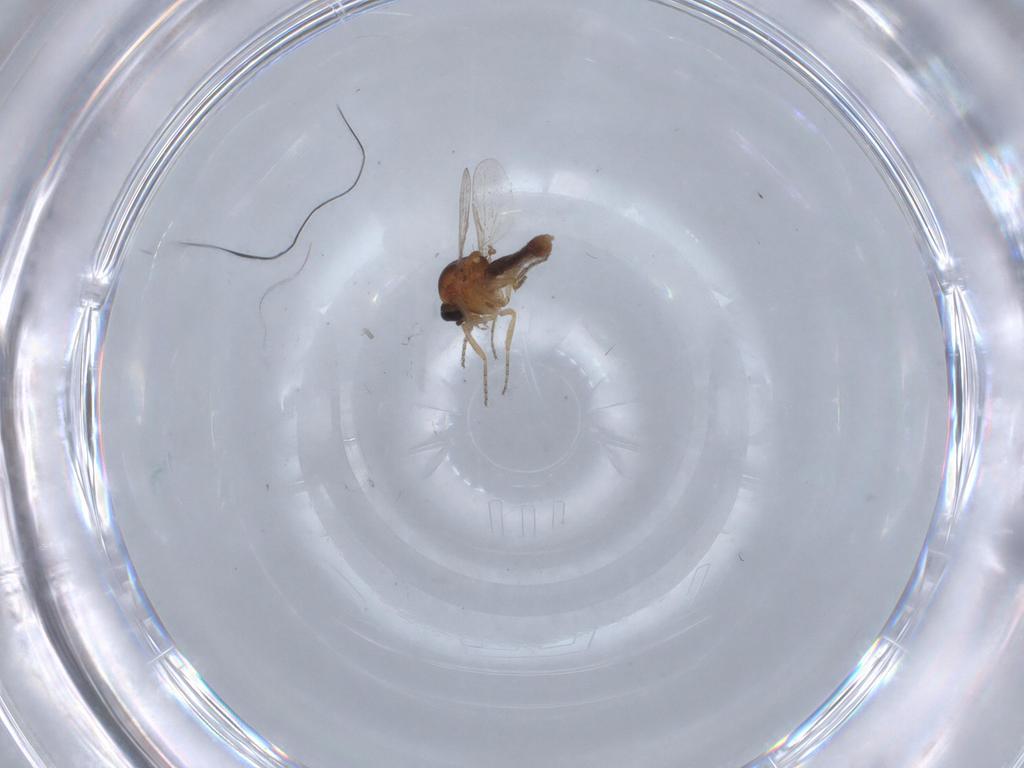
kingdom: Animalia
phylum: Arthropoda
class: Insecta
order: Diptera
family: Ceratopogonidae
